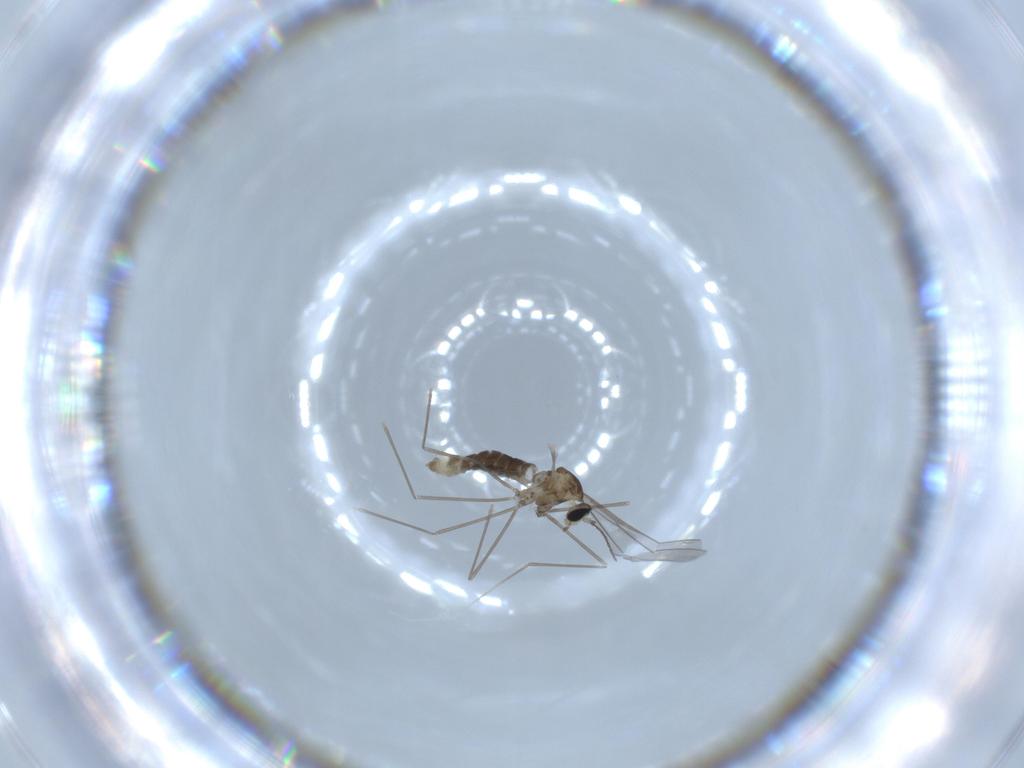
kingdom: Animalia
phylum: Arthropoda
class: Insecta
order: Diptera
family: Cecidomyiidae
